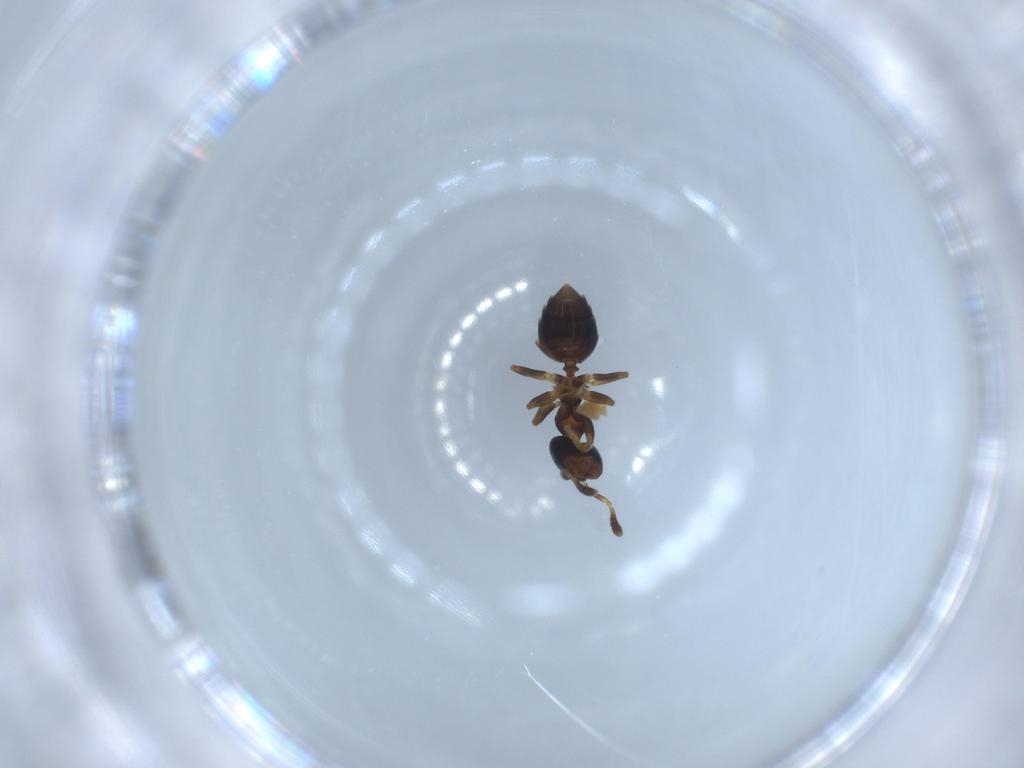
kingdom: Animalia
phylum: Arthropoda
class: Insecta
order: Hymenoptera
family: Formicidae
